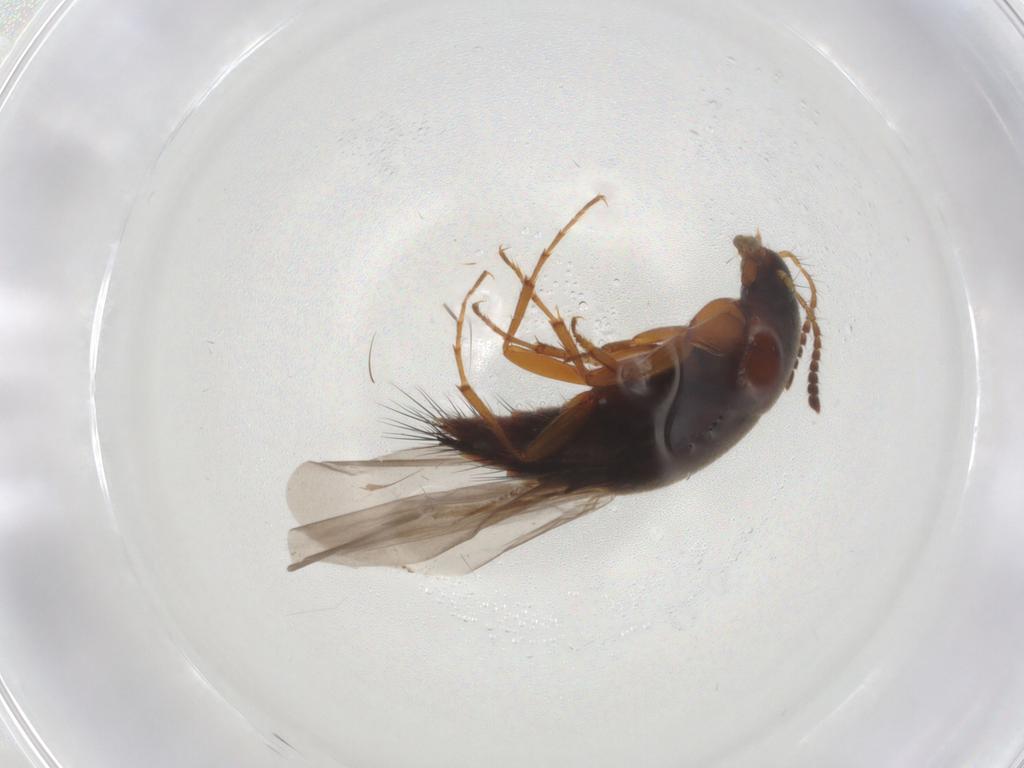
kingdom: Animalia
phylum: Arthropoda
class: Insecta
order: Coleoptera
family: Staphylinidae
